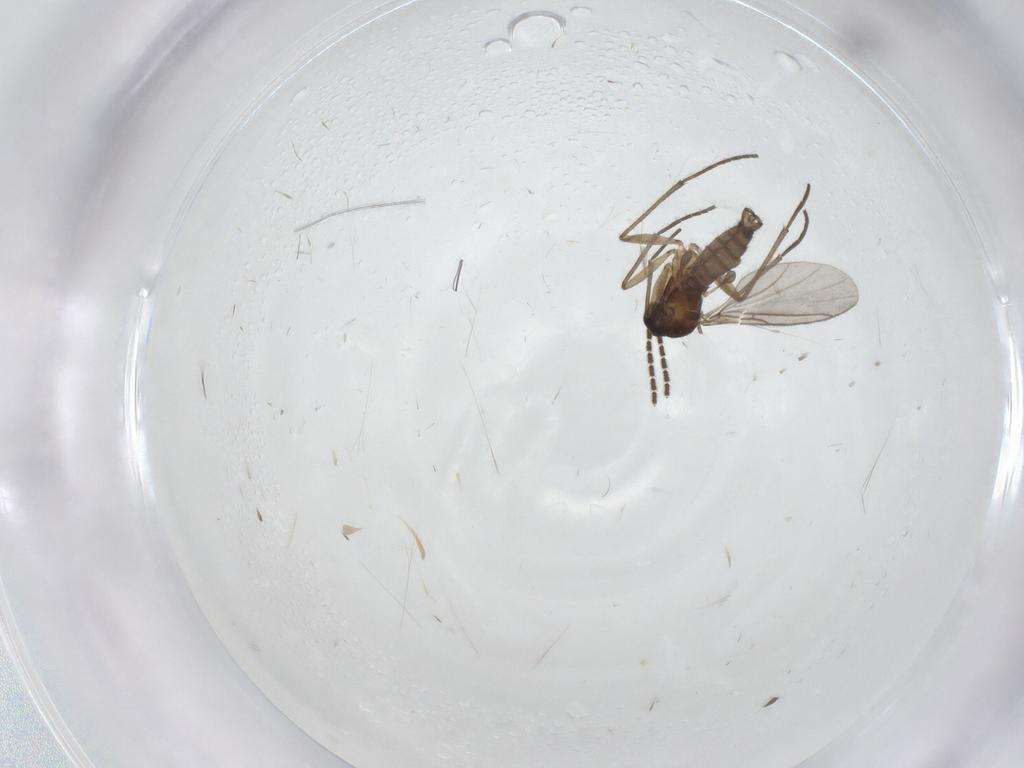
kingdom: Animalia
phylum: Arthropoda
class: Insecta
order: Diptera
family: Sciaridae
